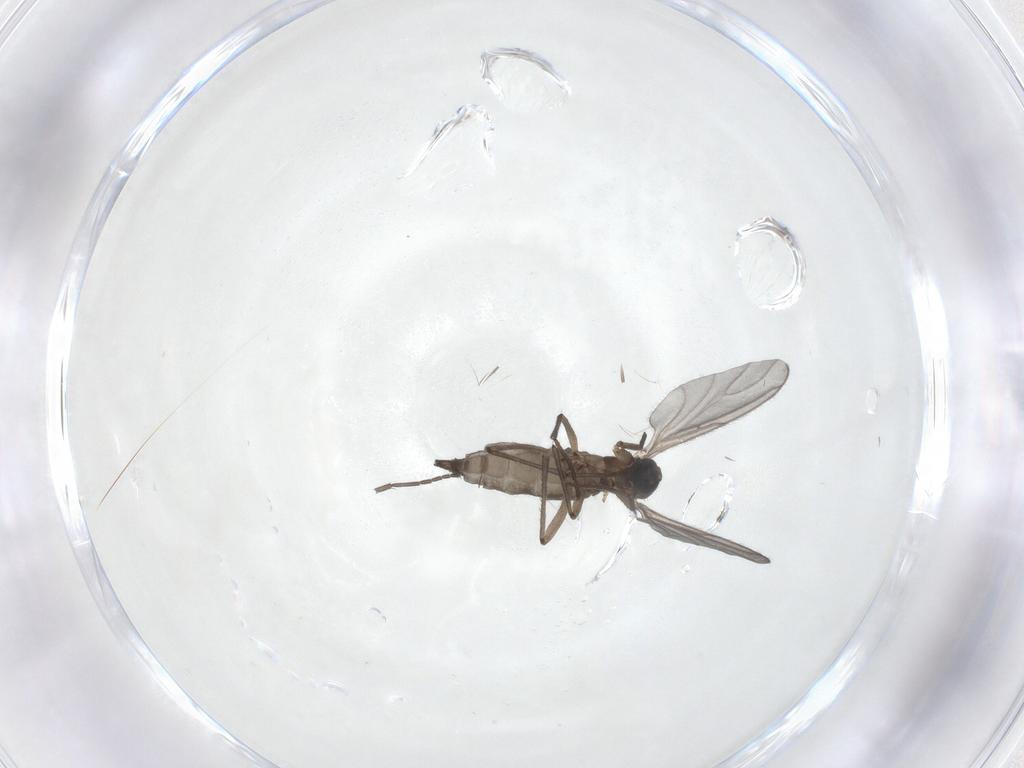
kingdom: Animalia
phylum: Arthropoda
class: Insecta
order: Diptera
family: Sciaridae
